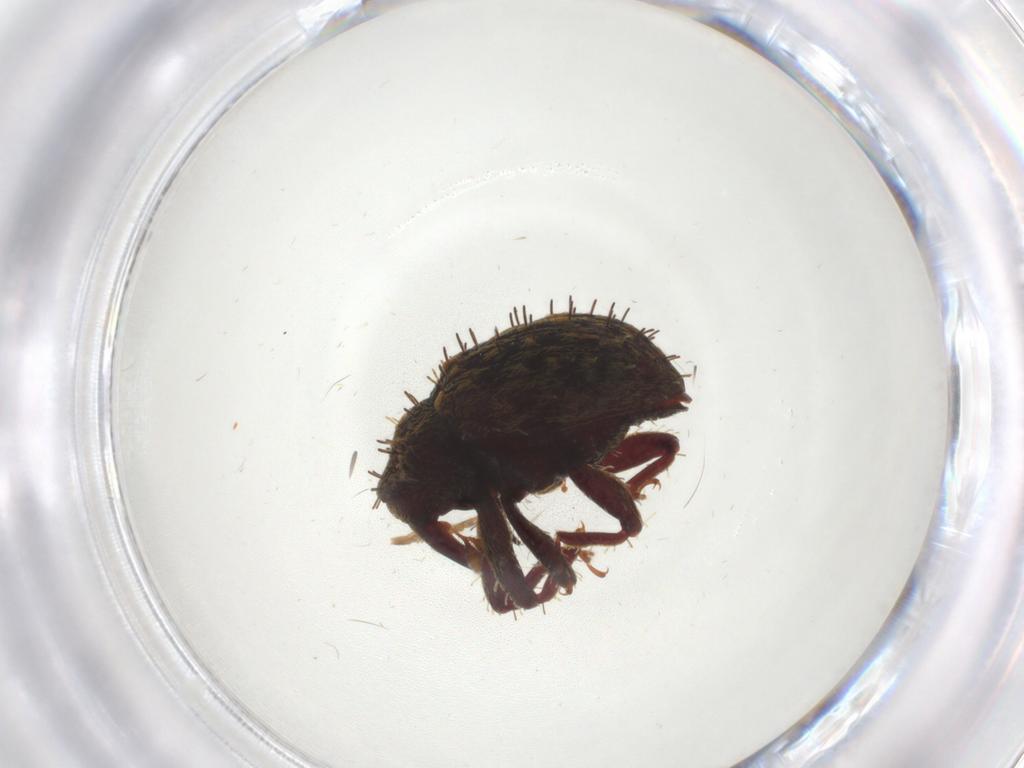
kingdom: Animalia
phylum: Arthropoda
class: Insecta
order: Coleoptera
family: Curculionidae
